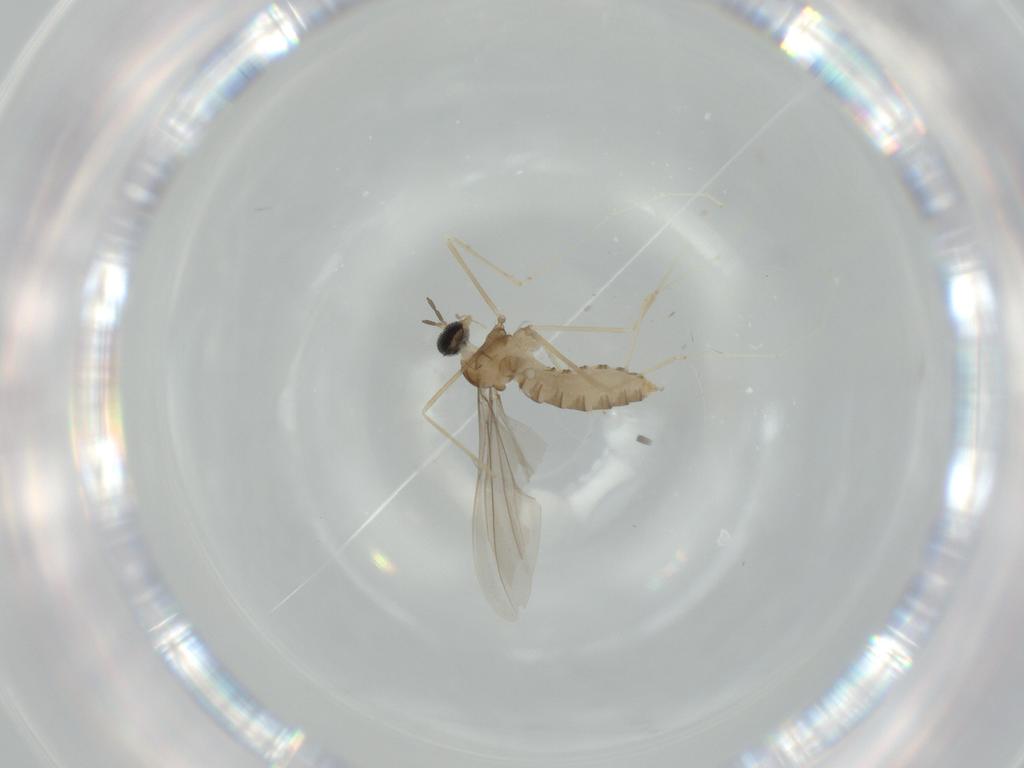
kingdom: Animalia
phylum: Arthropoda
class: Insecta
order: Diptera
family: Cecidomyiidae
